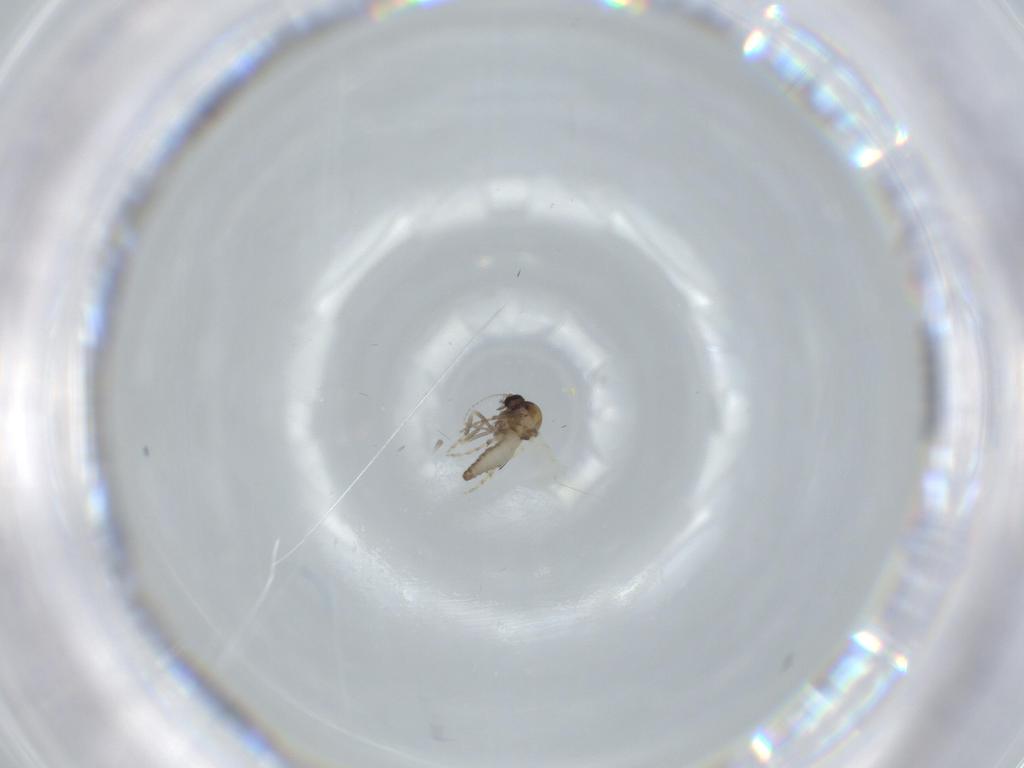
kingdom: Animalia
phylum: Arthropoda
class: Insecta
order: Diptera
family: Ceratopogonidae
